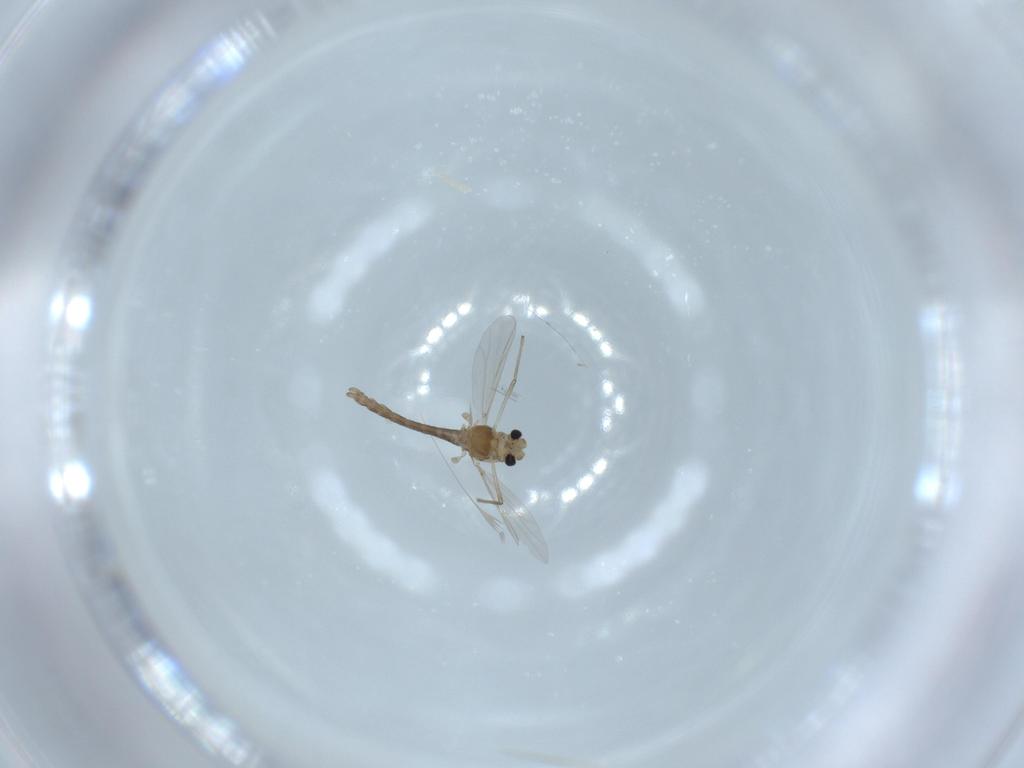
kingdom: Animalia
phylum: Arthropoda
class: Insecta
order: Diptera
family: Chironomidae
